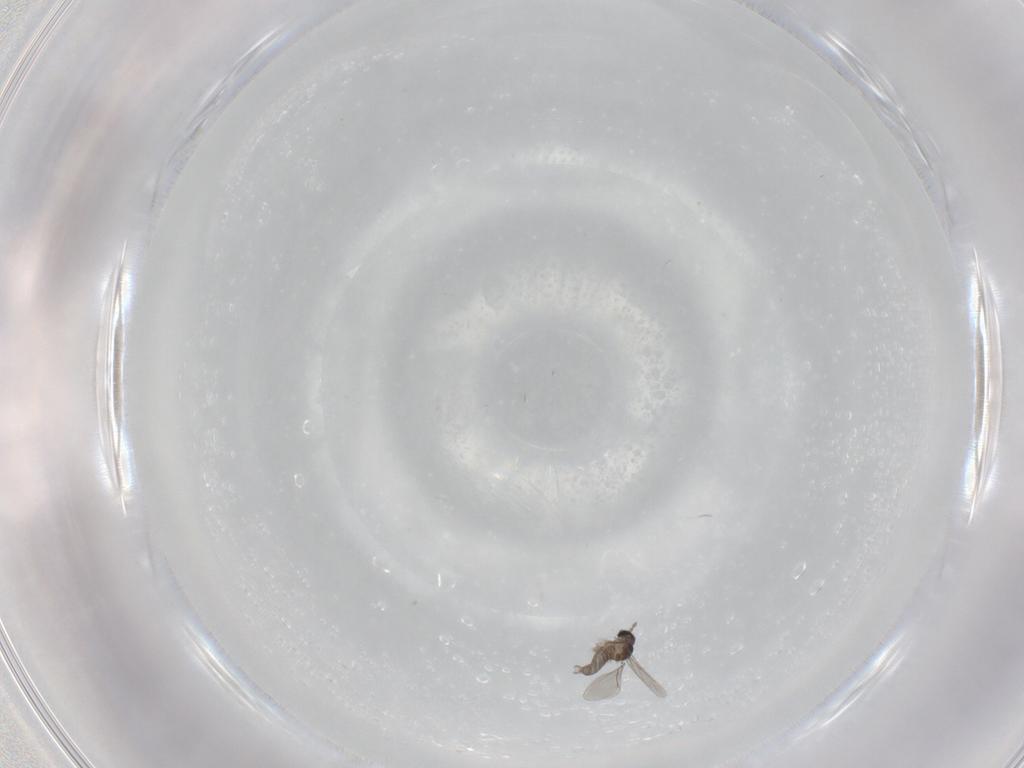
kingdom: Animalia
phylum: Arthropoda
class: Insecta
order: Diptera
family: Cecidomyiidae
